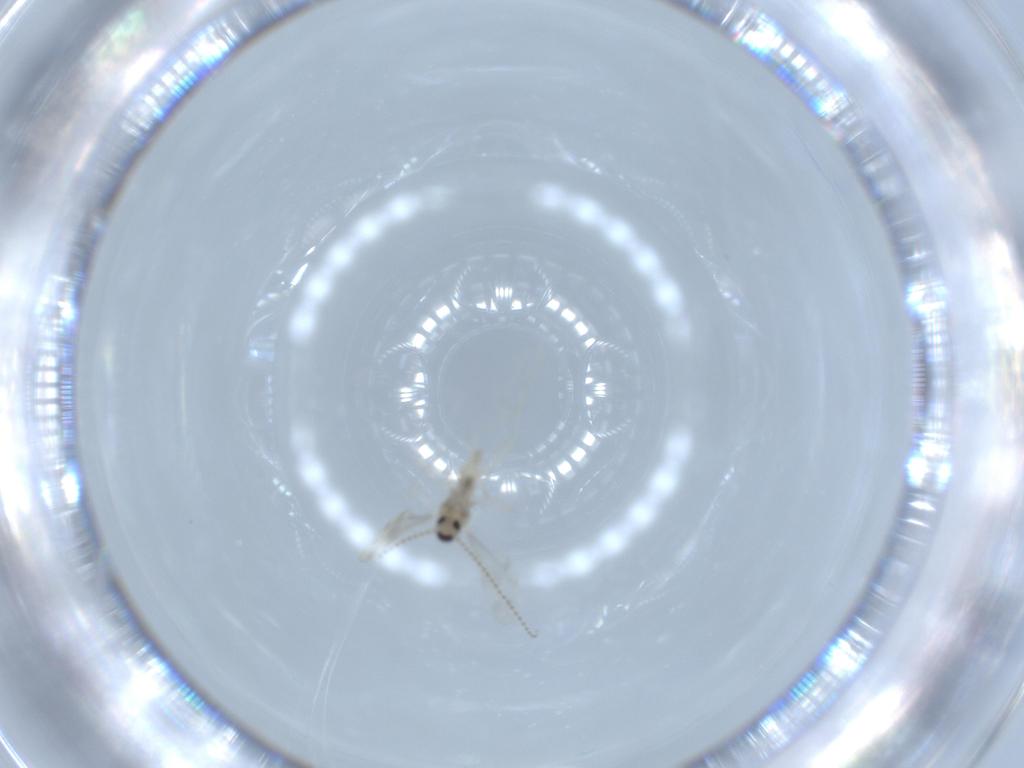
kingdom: Animalia
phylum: Arthropoda
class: Insecta
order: Diptera
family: Cecidomyiidae
